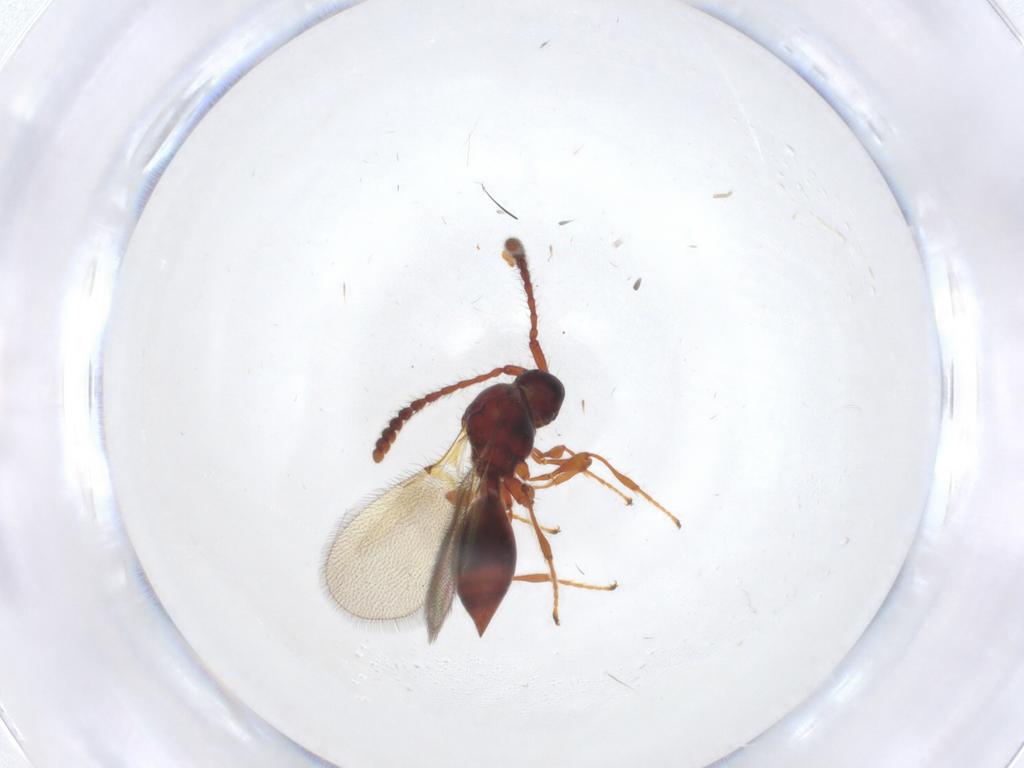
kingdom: Animalia
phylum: Arthropoda
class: Insecta
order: Hymenoptera
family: Diapriidae
